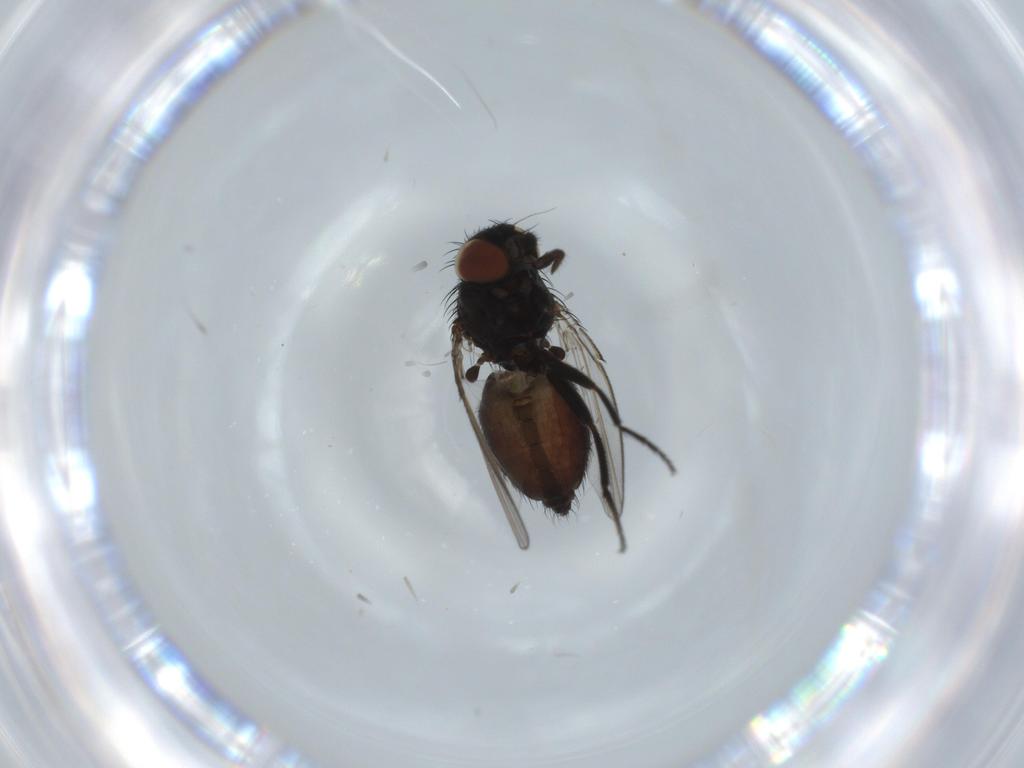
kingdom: Animalia
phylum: Arthropoda
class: Insecta
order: Diptera
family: Milichiidae
